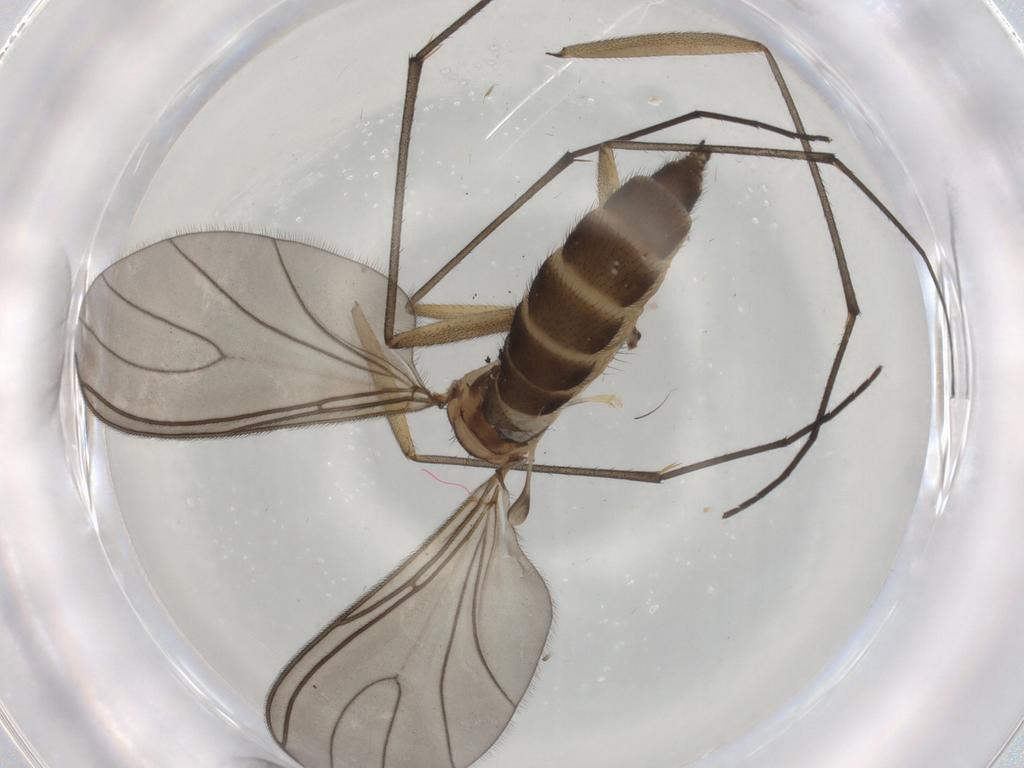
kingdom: Animalia
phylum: Arthropoda
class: Insecta
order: Diptera
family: Sciaridae
